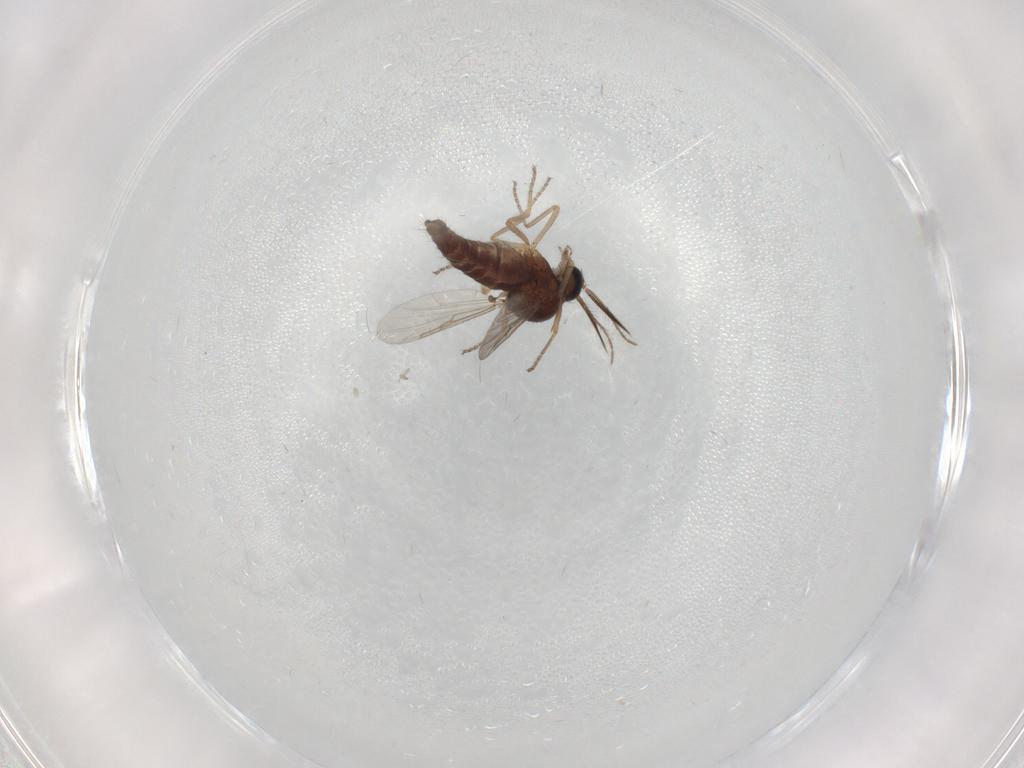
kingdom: Animalia
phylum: Arthropoda
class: Insecta
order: Diptera
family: Ceratopogonidae
